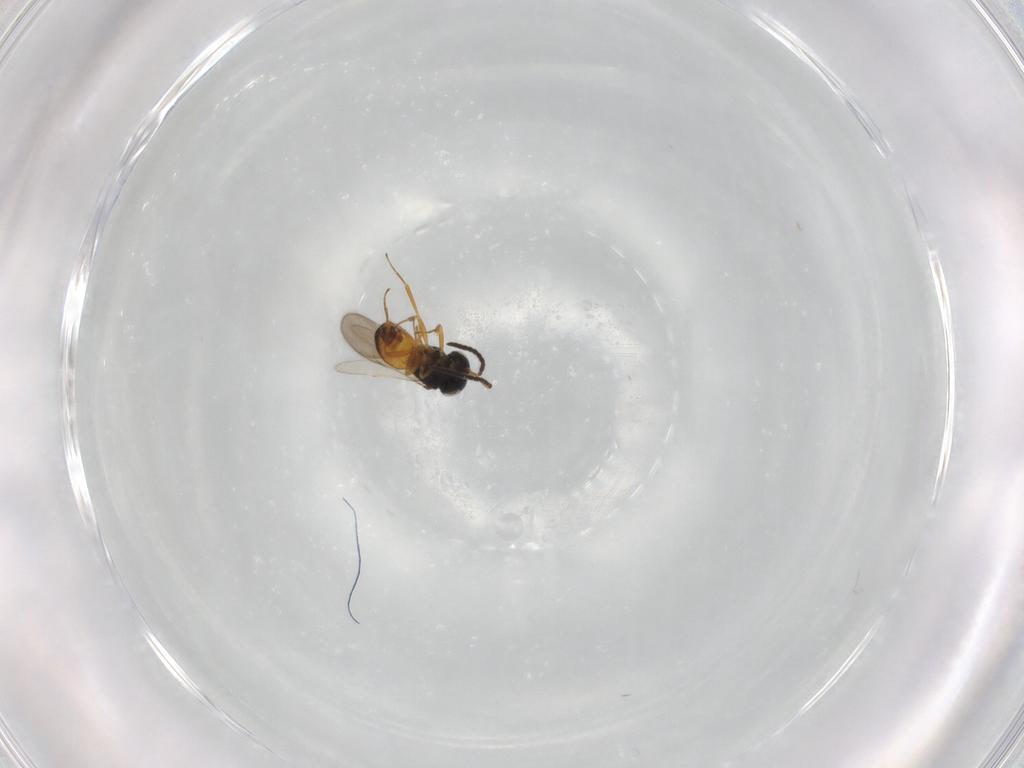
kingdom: Animalia
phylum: Arthropoda
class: Insecta
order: Hymenoptera
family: Scelionidae
